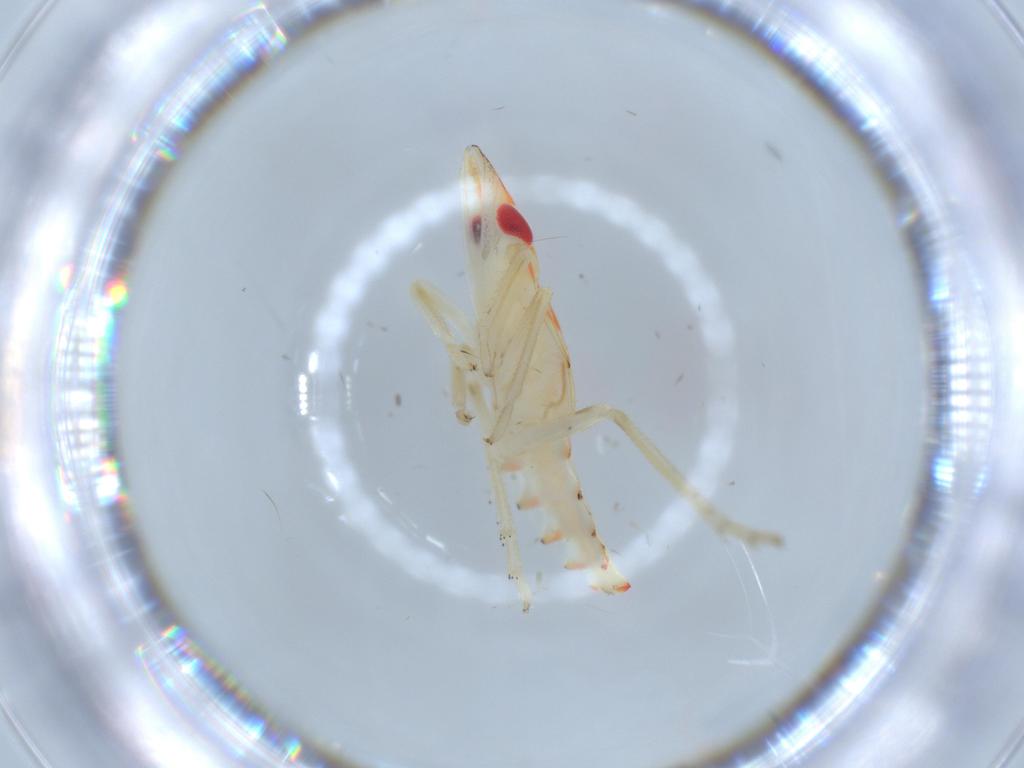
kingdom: Animalia
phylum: Arthropoda
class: Insecta
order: Hemiptera
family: Tropiduchidae
